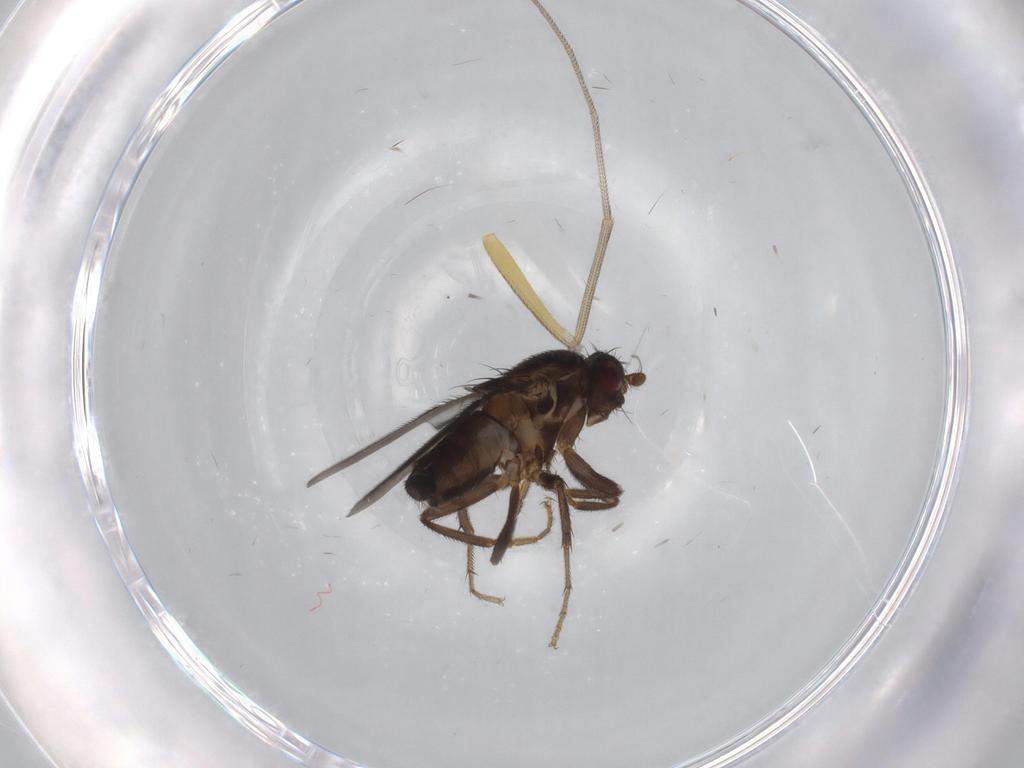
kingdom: Animalia
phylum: Arthropoda
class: Insecta
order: Diptera
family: Dolichopodidae
